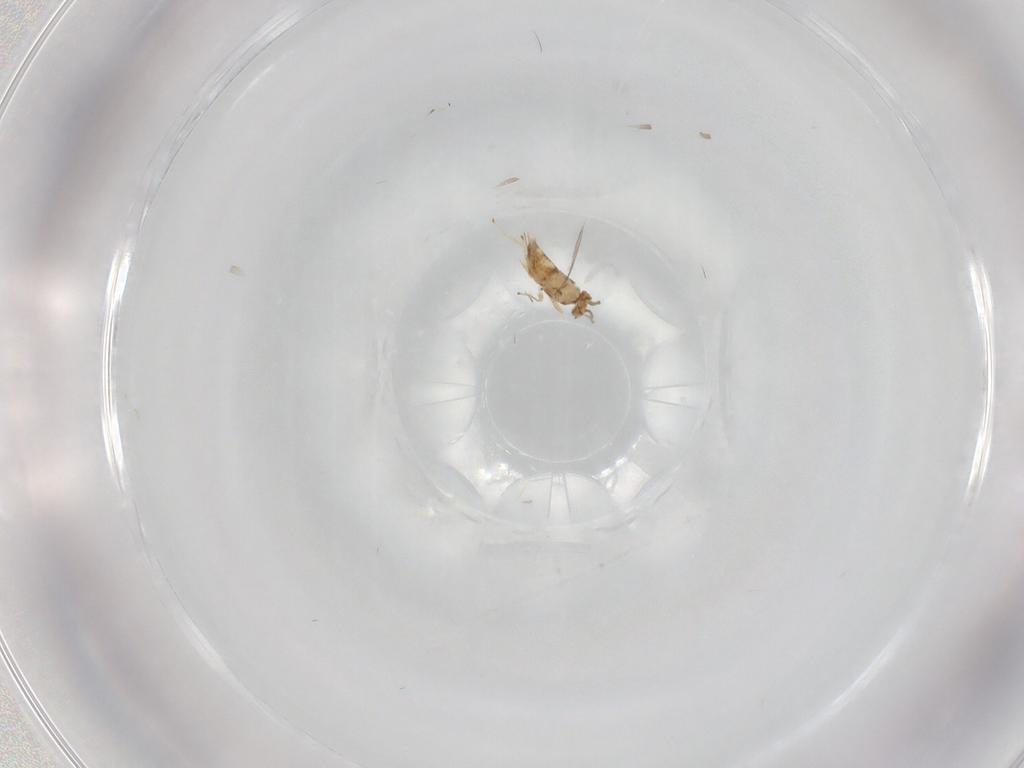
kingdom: Animalia
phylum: Arthropoda
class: Insecta
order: Hymenoptera
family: Aphelinidae
